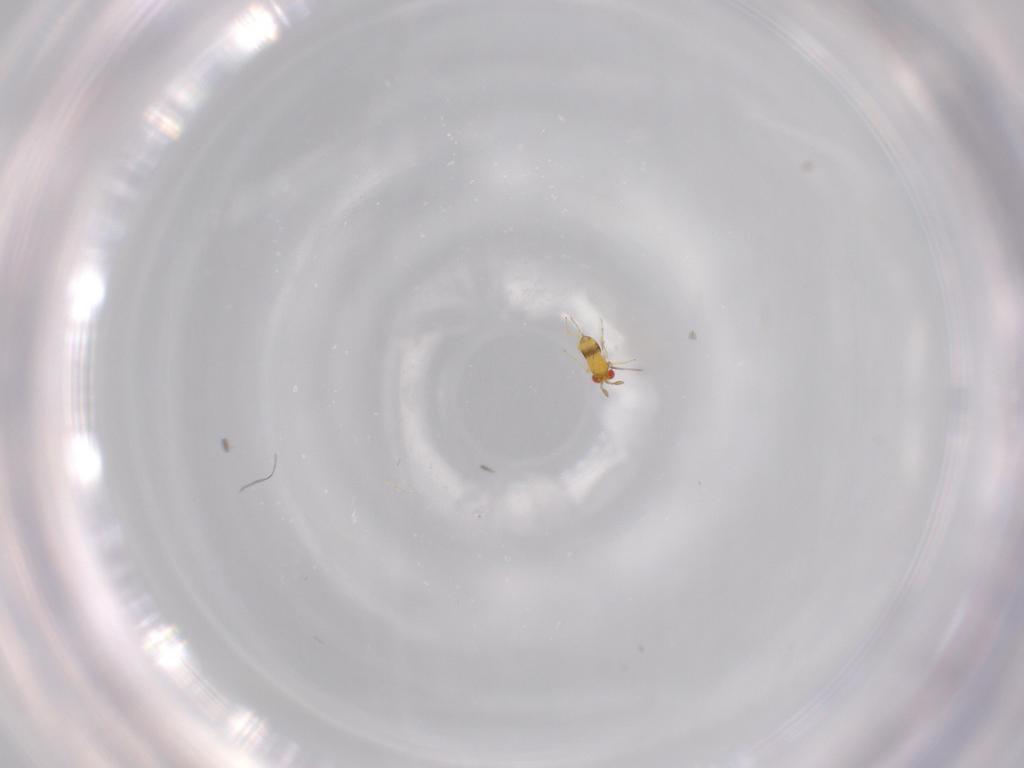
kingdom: Animalia
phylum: Arthropoda
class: Insecta
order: Hymenoptera
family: Trichogrammatidae
